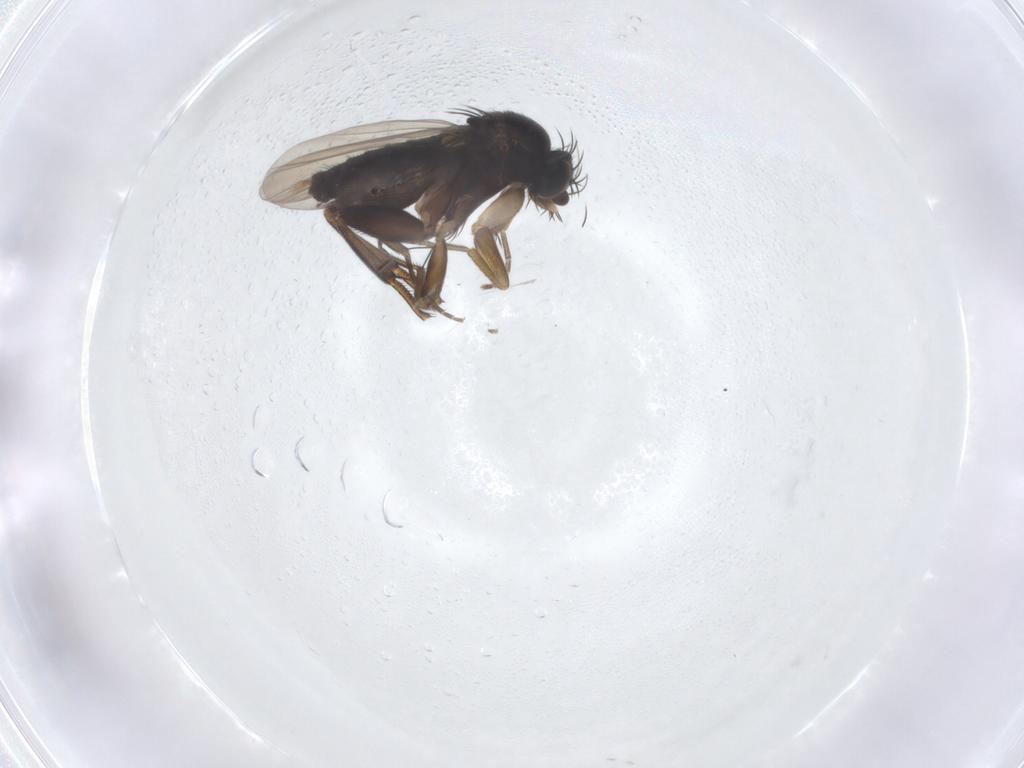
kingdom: Animalia
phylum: Arthropoda
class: Insecta
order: Diptera
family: Phoridae
